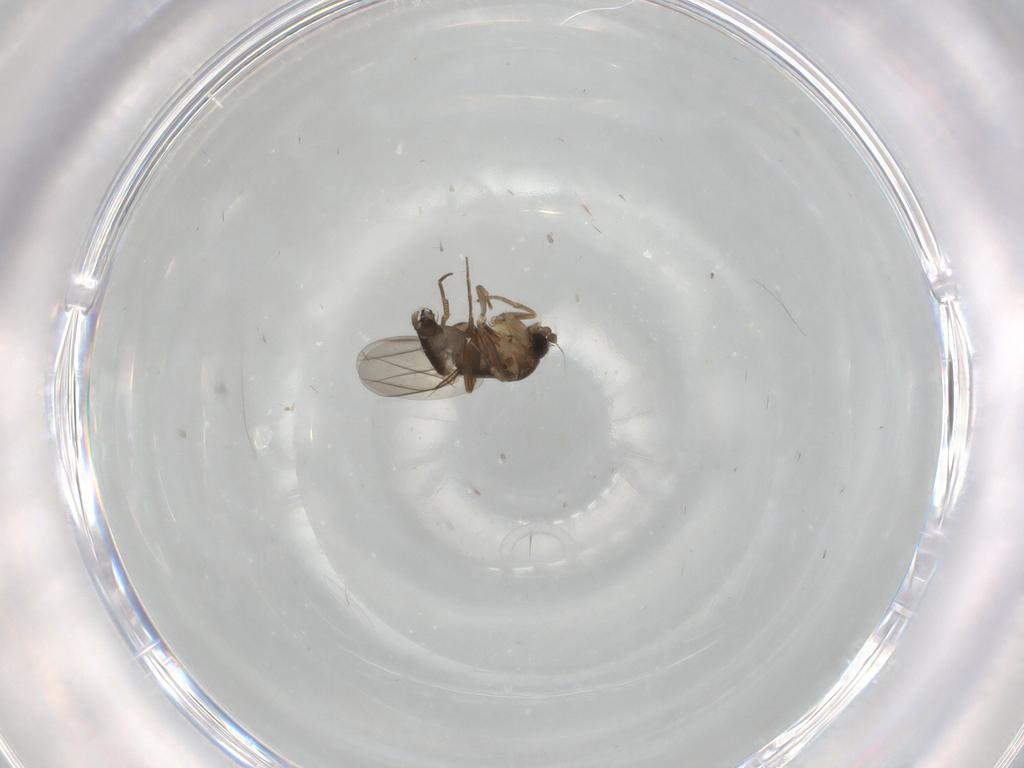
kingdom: Animalia
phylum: Arthropoda
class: Insecta
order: Diptera
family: Phoridae
